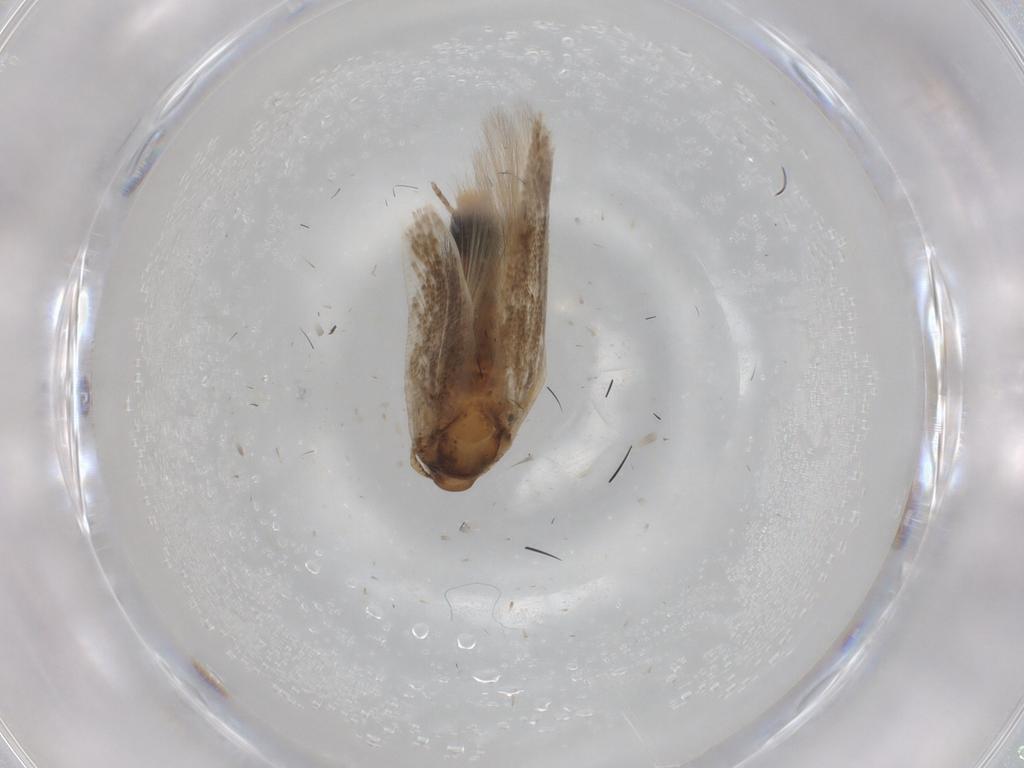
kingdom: Animalia
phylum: Arthropoda
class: Insecta
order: Lepidoptera
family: Cosmopterigidae
